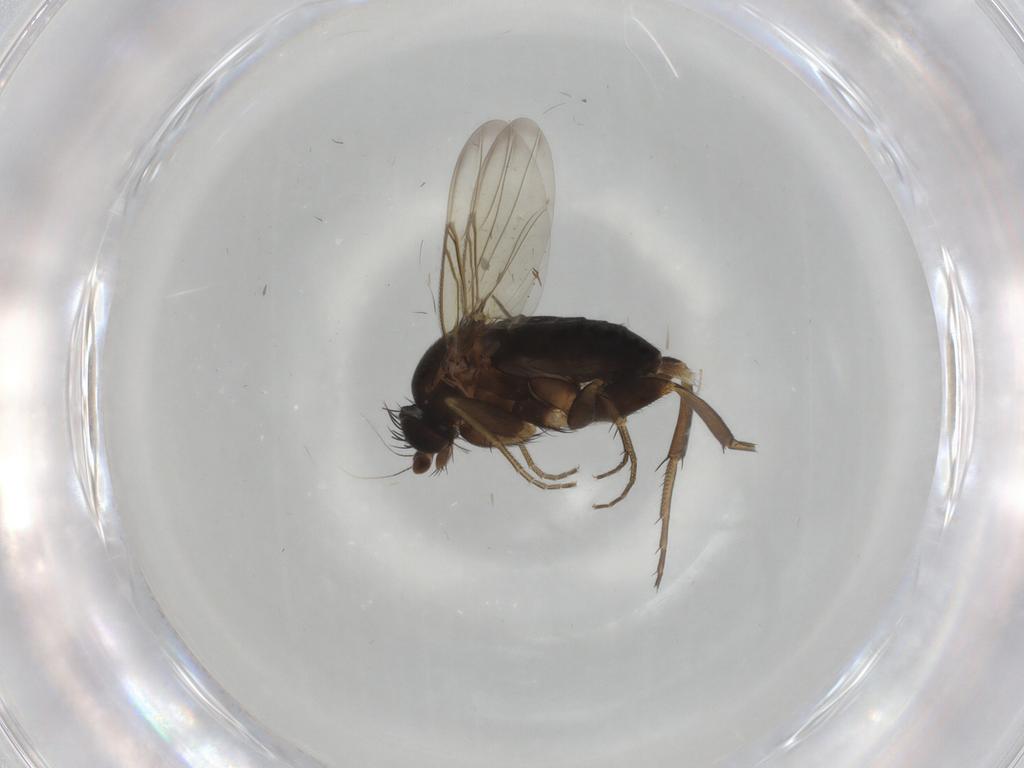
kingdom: Animalia
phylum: Arthropoda
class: Insecta
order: Diptera
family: Phoridae
